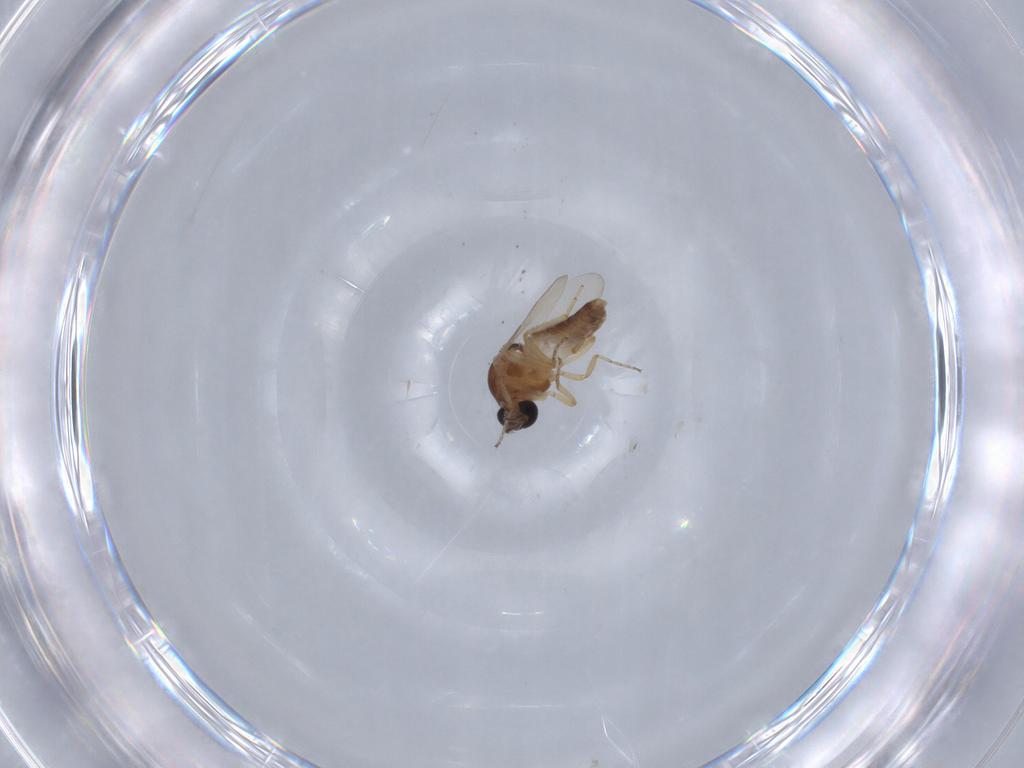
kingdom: Animalia
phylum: Arthropoda
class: Insecta
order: Diptera
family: Ceratopogonidae
